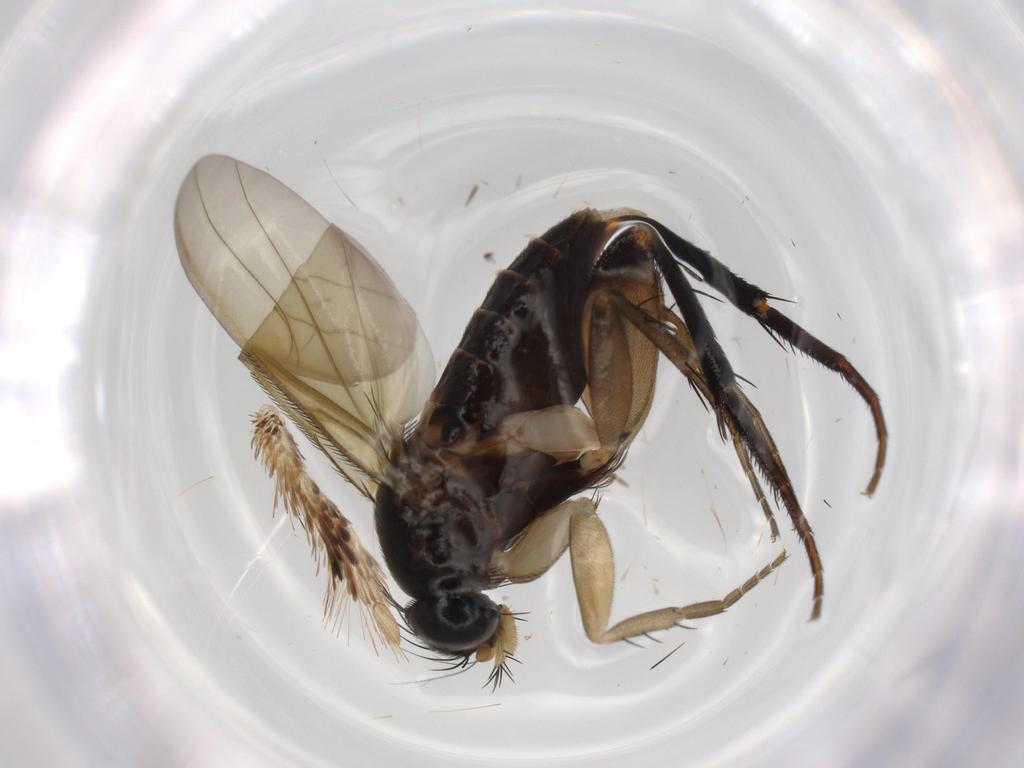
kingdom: Animalia
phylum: Arthropoda
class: Insecta
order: Diptera
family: Phoridae
